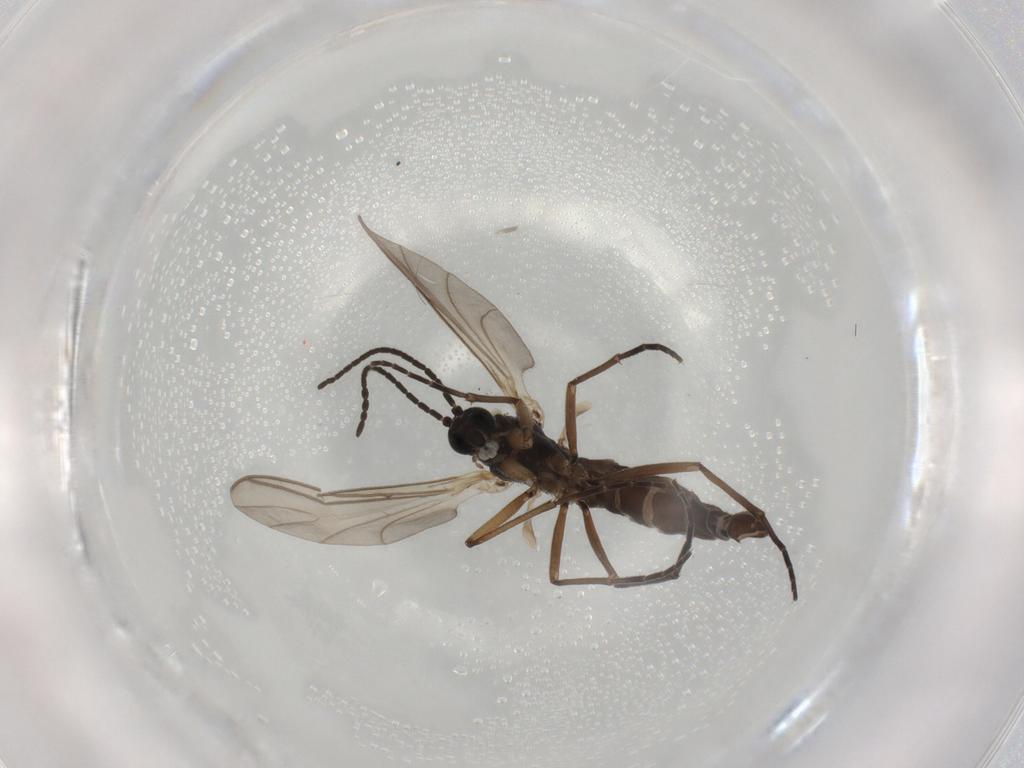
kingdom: Animalia
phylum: Arthropoda
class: Insecta
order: Diptera
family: Sciaridae
